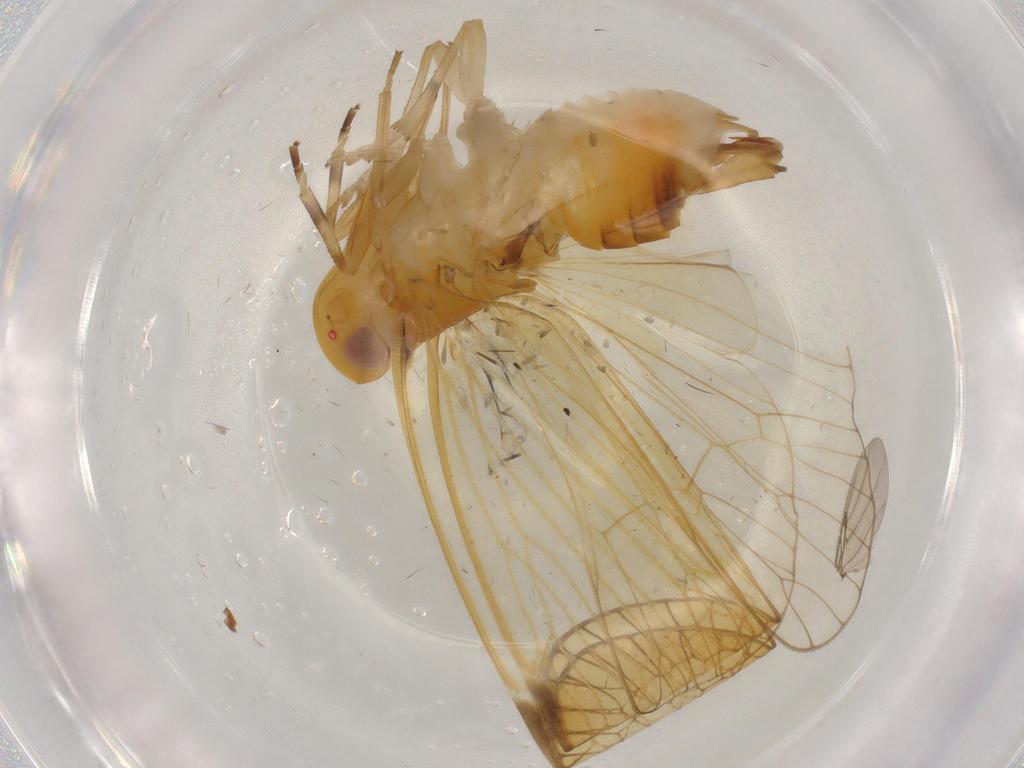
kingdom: Animalia
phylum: Arthropoda
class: Insecta
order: Hemiptera
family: Cixiidae
